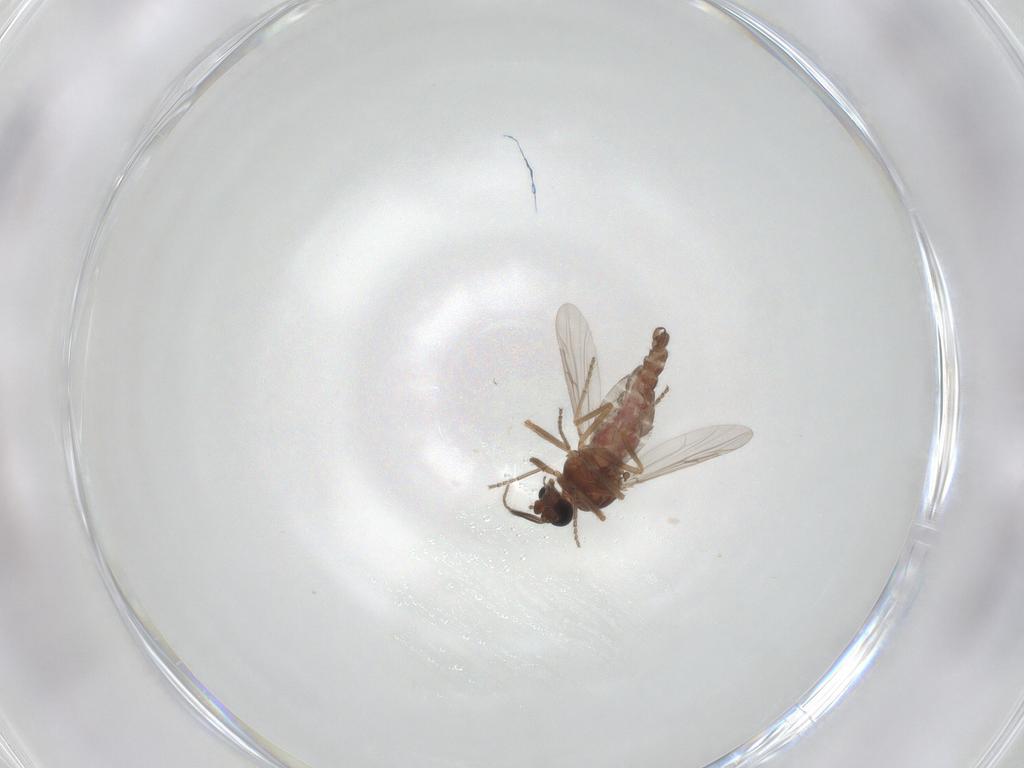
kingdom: Animalia
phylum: Arthropoda
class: Insecta
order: Diptera
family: Ceratopogonidae
